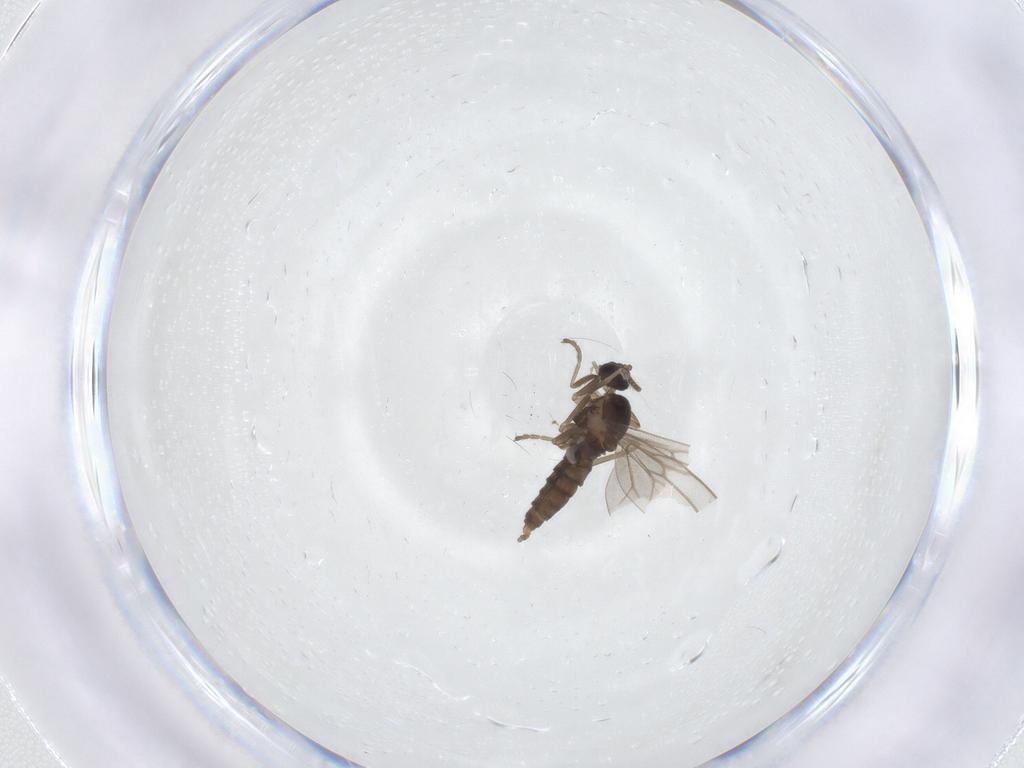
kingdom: Animalia
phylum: Arthropoda
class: Insecta
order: Diptera
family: Cecidomyiidae
